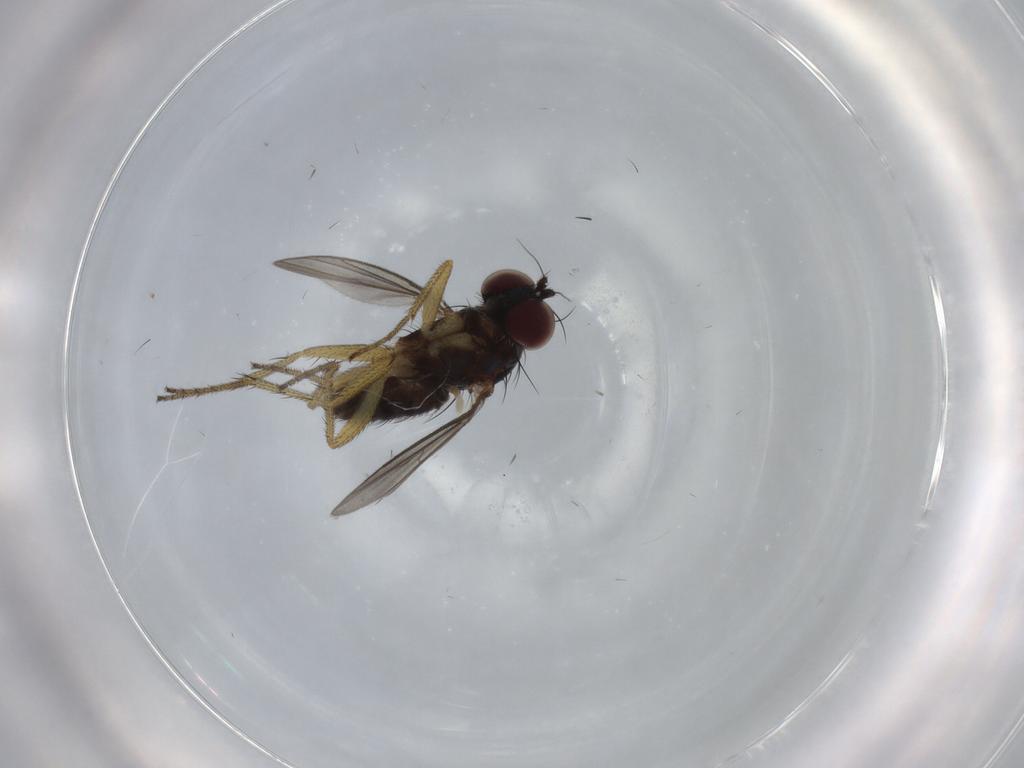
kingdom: Animalia
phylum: Arthropoda
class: Insecta
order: Diptera
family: Dolichopodidae
